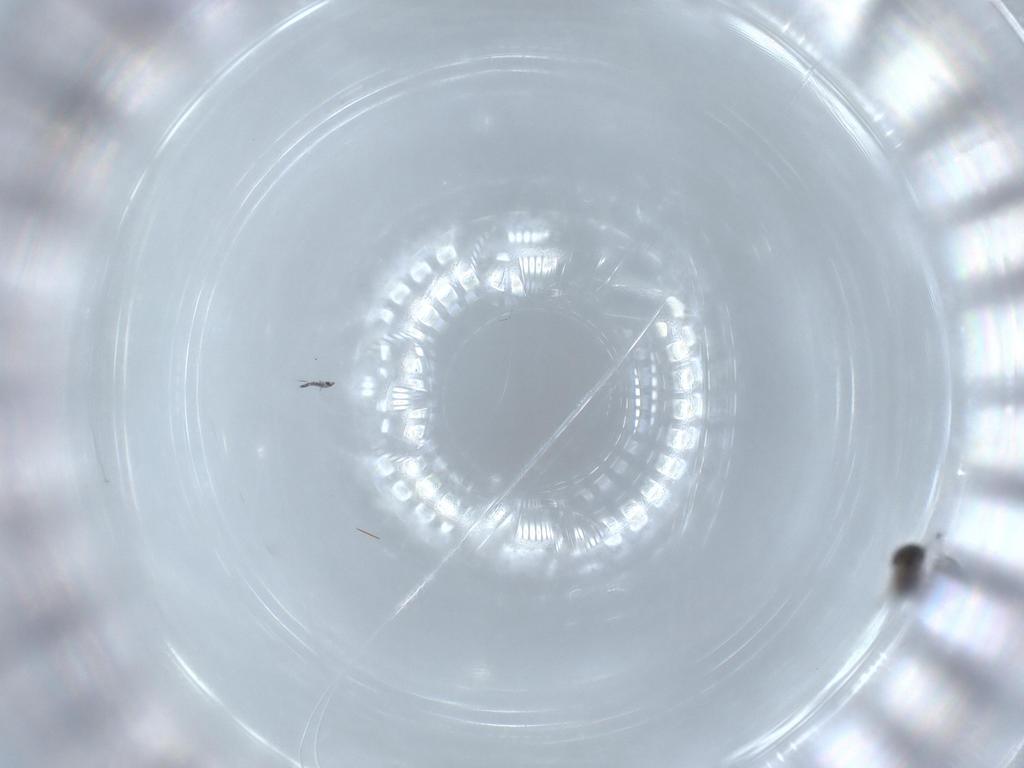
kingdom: Animalia
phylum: Arthropoda
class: Insecta
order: Hymenoptera
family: Scelionidae
